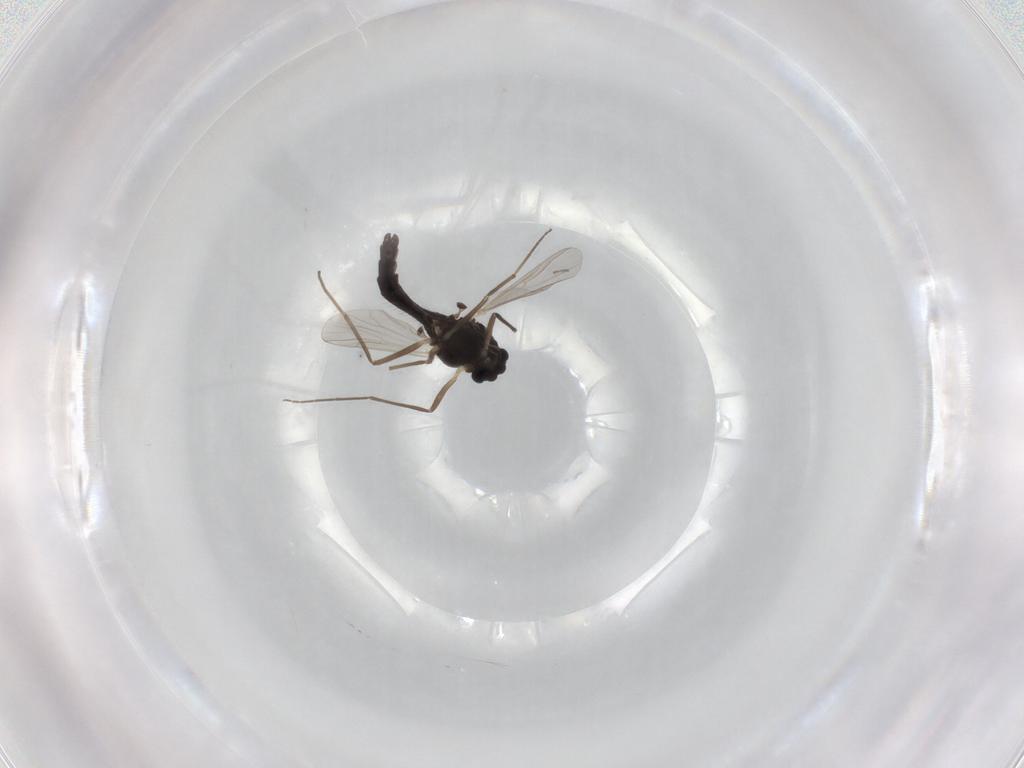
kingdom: Animalia
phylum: Arthropoda
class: Insecta
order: Diptera
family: Chironomidae
